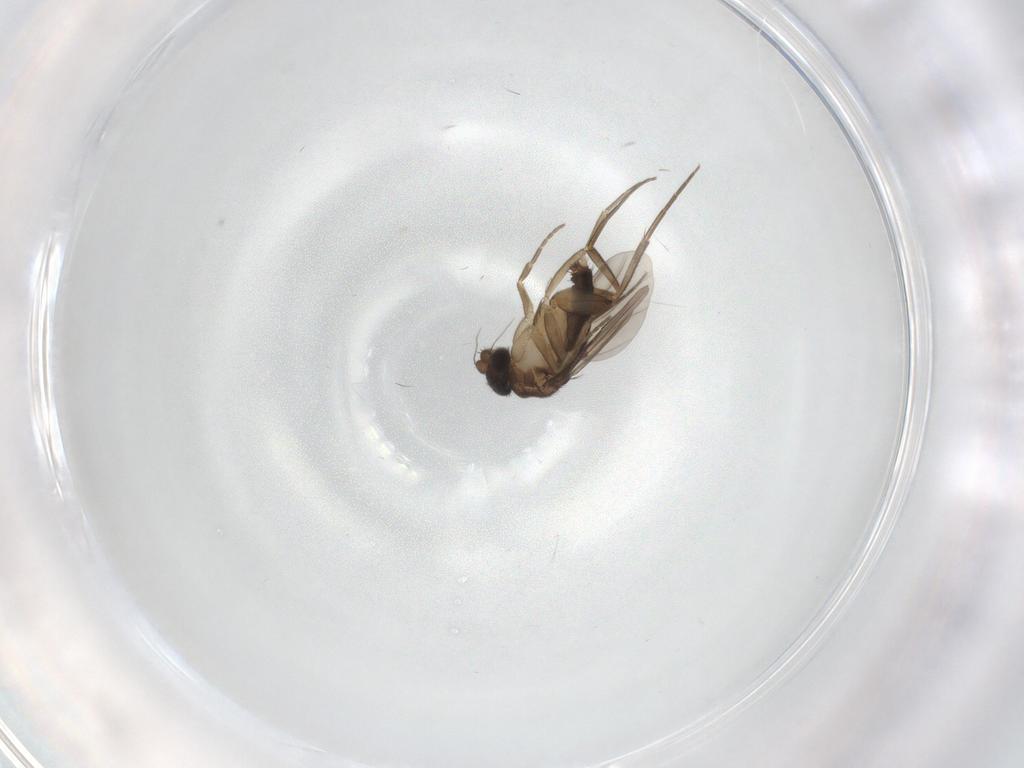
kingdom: Animalia
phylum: Arthropoda
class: Insecta
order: Diptera
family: Phoridae
